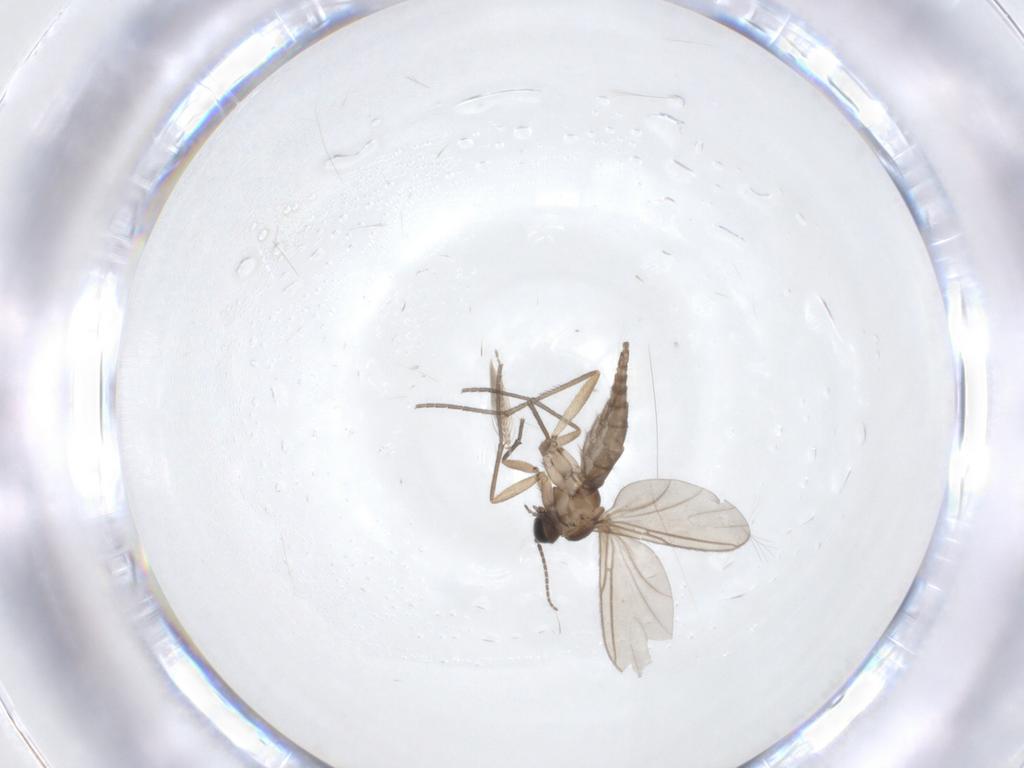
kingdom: Animalia
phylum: Arthropoda
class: Insecta
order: Diptera
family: Sciaridae
